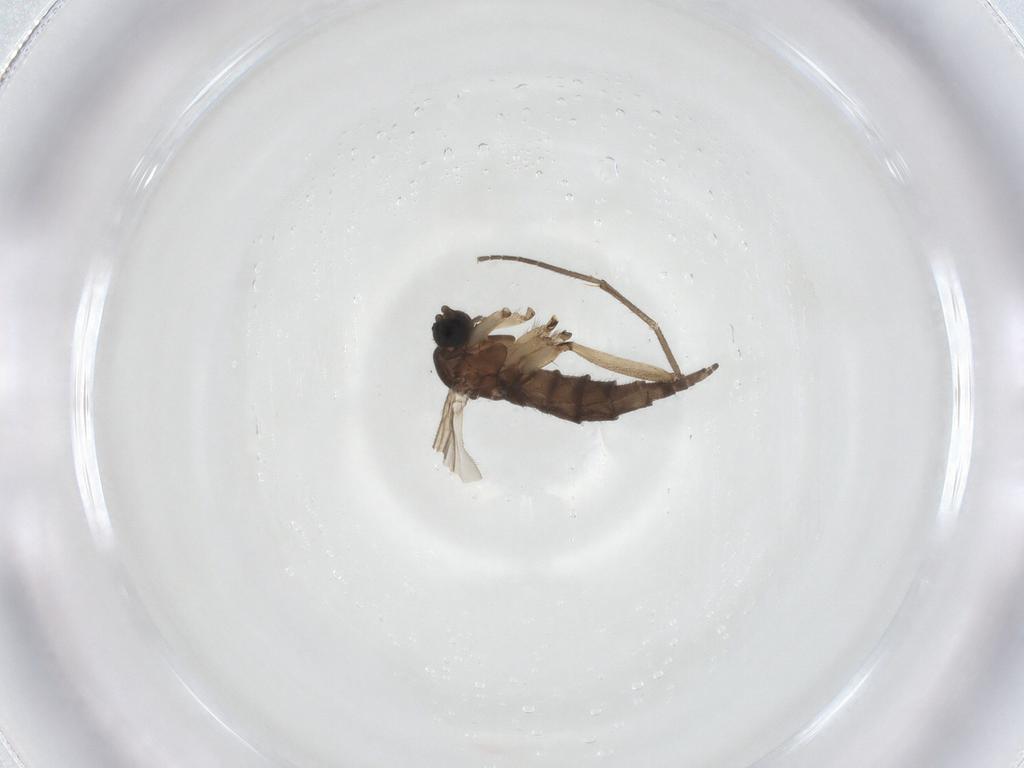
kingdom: Animalia
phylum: Arthropoda
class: Insecta
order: Diptera
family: Sciaridae
